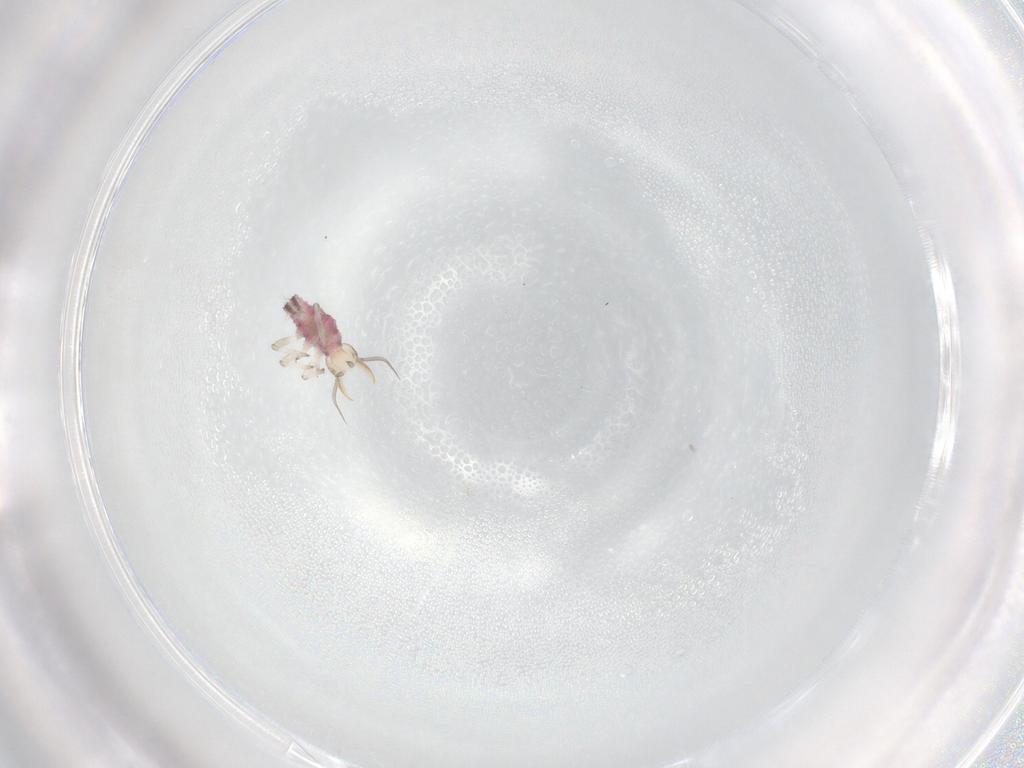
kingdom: Animalia
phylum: Arthropoda
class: Insecta
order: Neuroptera
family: Hemerobiidae
